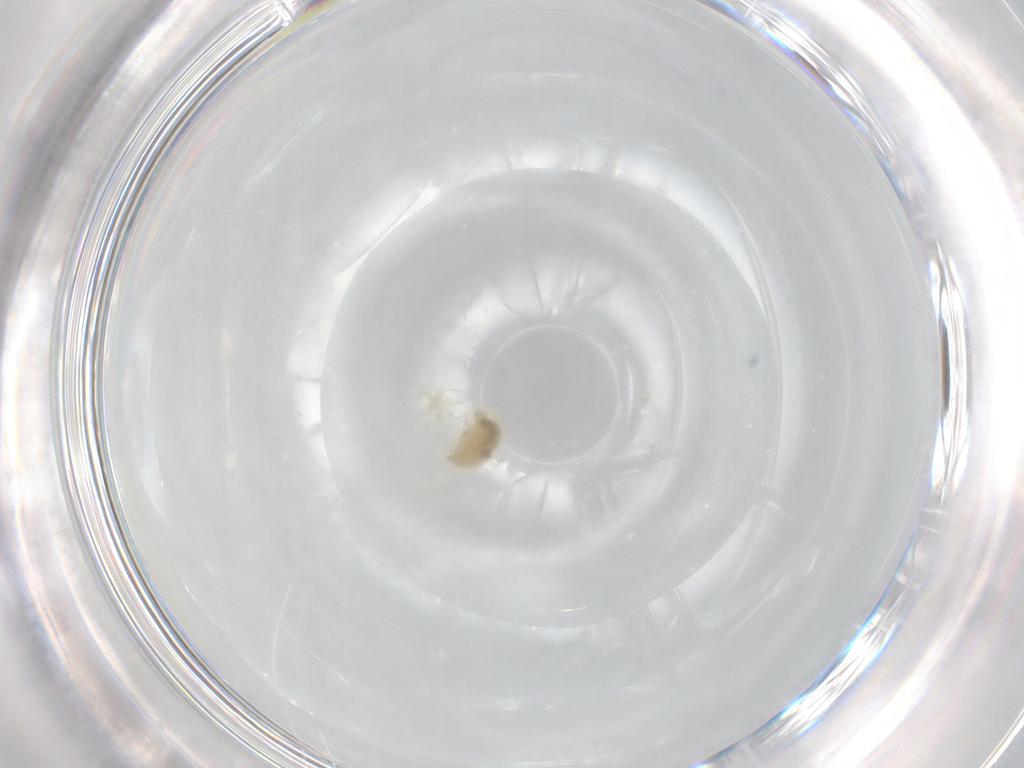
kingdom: Animalia
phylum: Arthropoda
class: Arachnida
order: Trombidiformes
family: Tetranychidae
